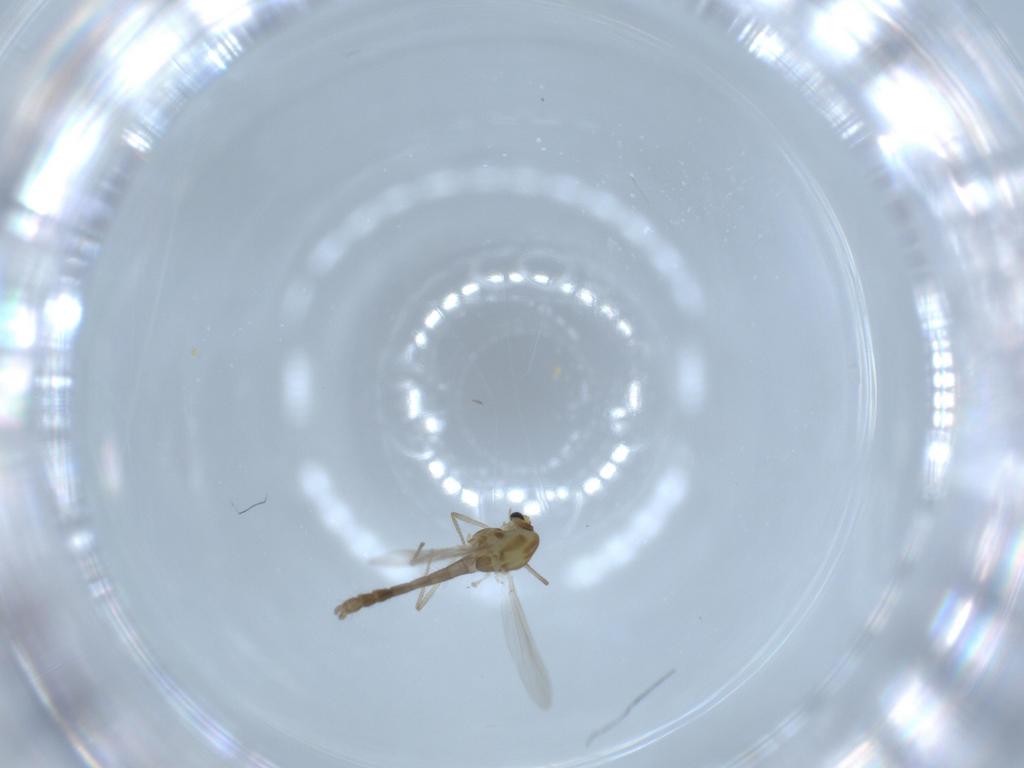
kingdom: Animalia
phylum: Arthropoda
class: Insecta
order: Diptera
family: Chironomidae
